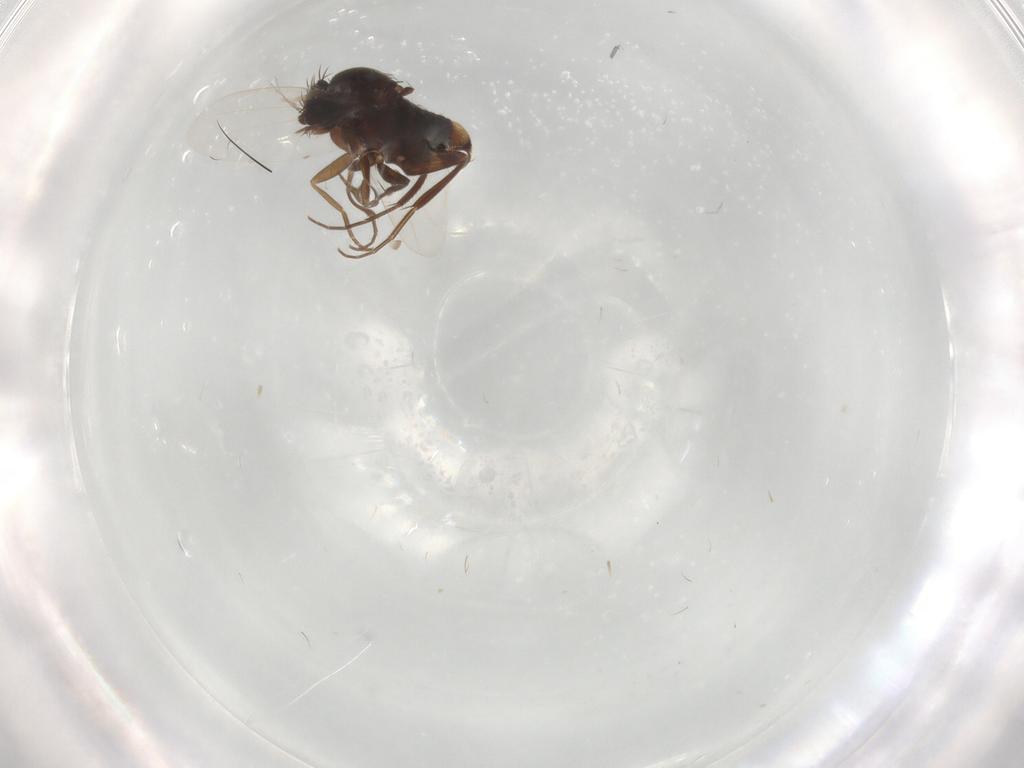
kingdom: Animalia
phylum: Arthropoda
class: Insecta
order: Diptera
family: Phoridae
